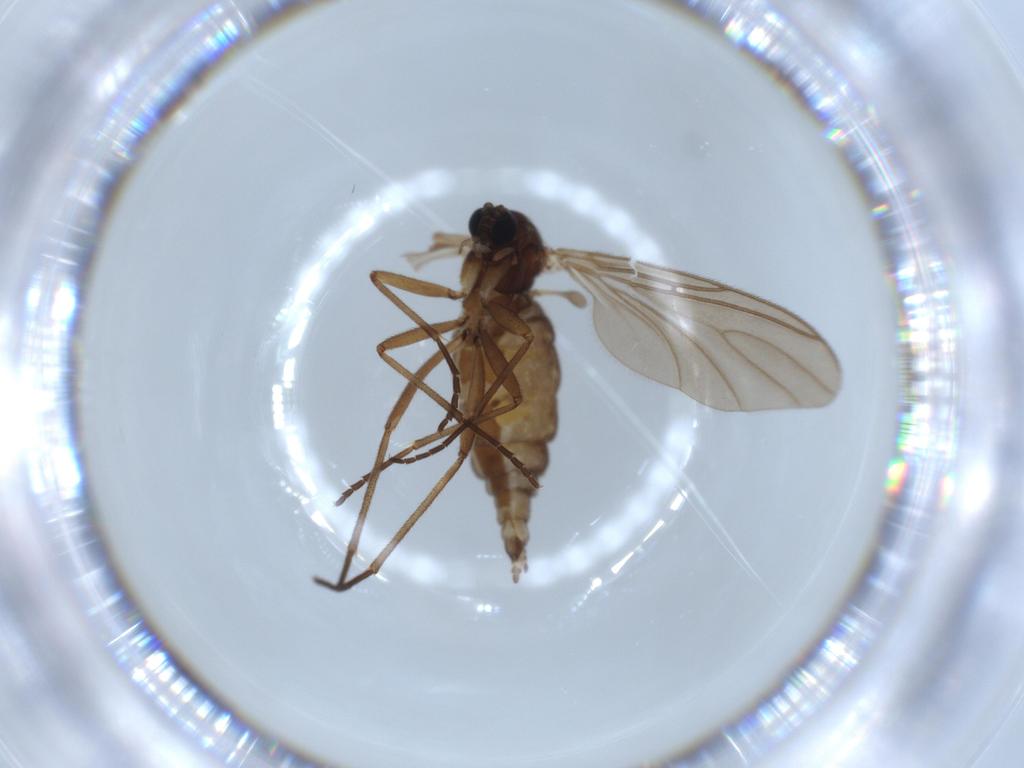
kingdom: Animalia
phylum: Arthropoda
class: Insecta
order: Diptera
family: Sciaridae
